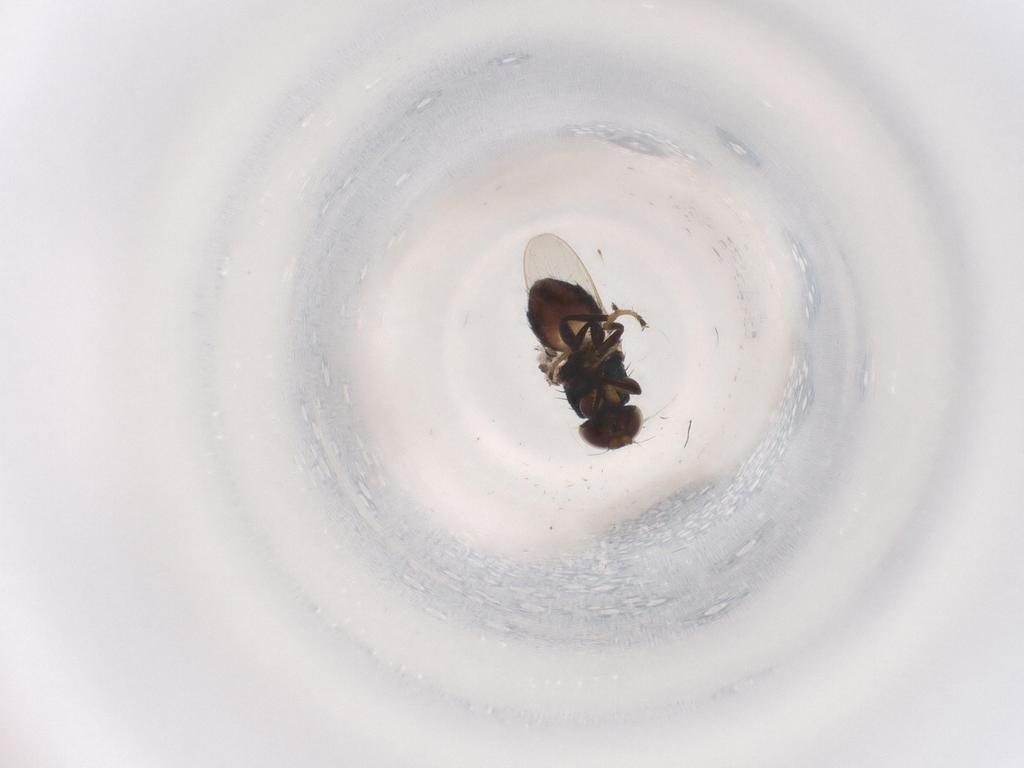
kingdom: Animalia
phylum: Arthropoda
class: Insecta
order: Diptera
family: Chloropidae
